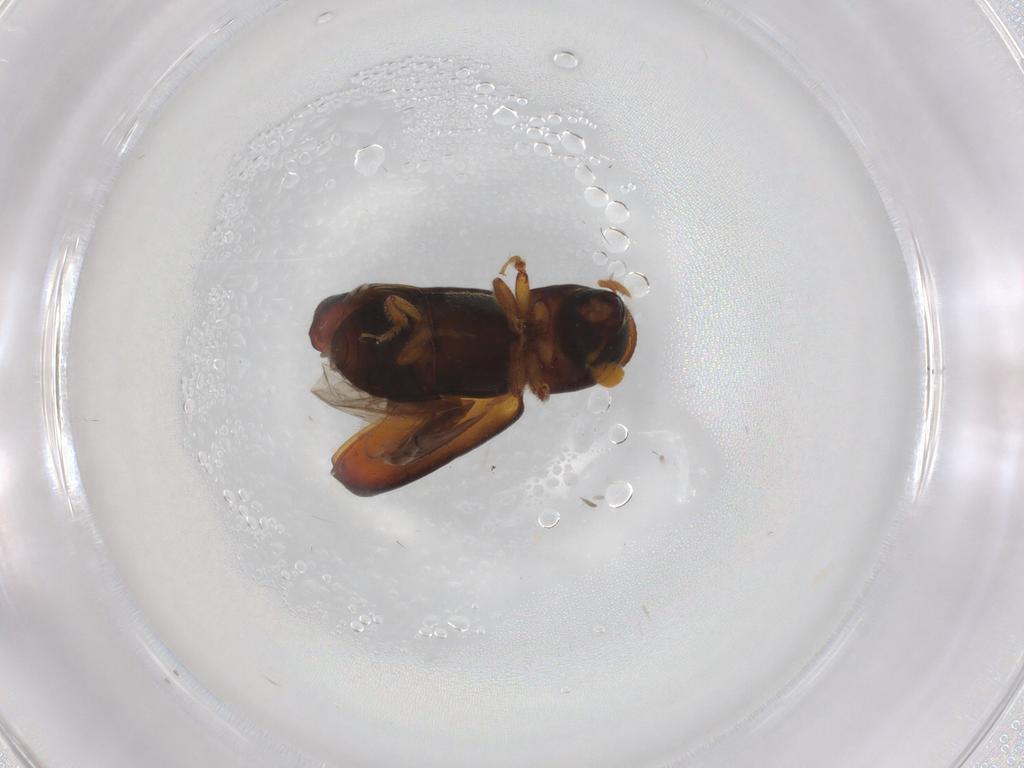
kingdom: Animalia
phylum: Arthropoda
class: Insecta
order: Coleoptera
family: Curculionidae
